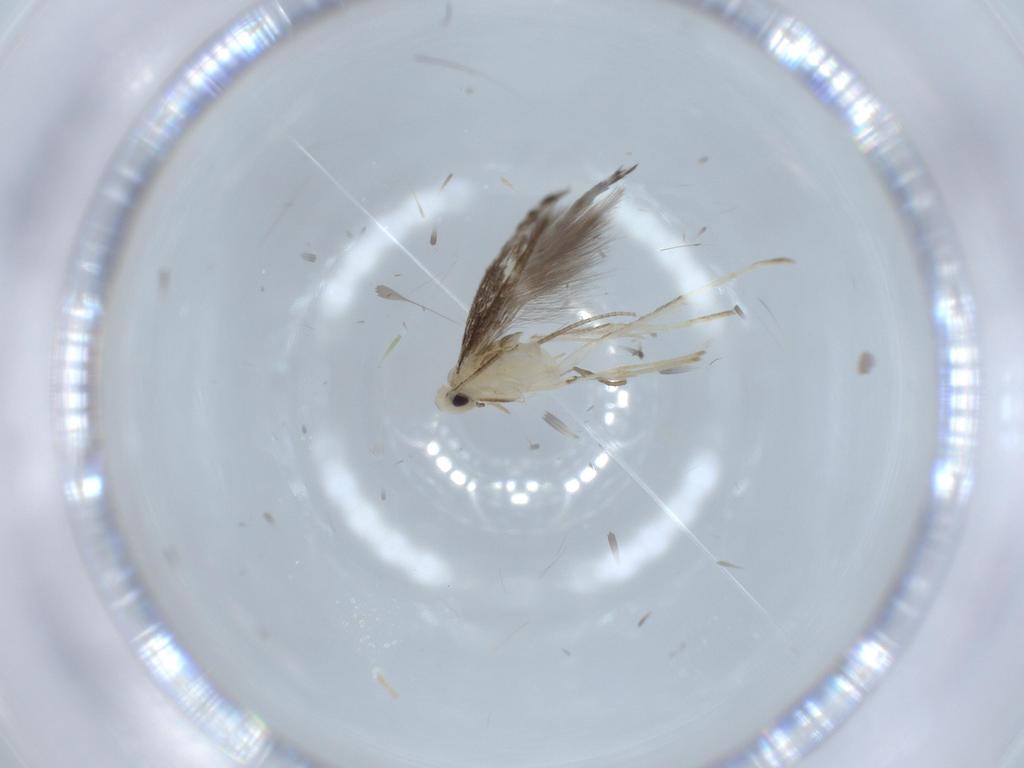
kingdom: Animalia
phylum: Arthropoda
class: Insecta
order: Lepidoptera
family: Gracillariidae
